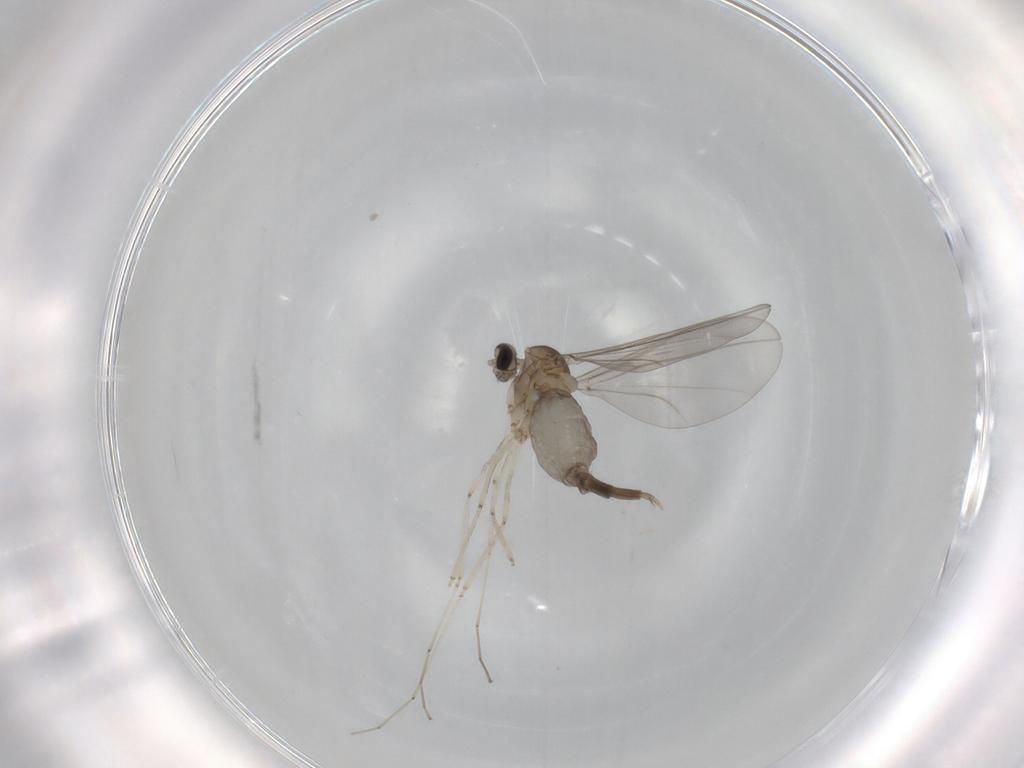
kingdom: Animalia
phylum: Arthropoda
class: Insecta
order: Diptera
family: Cecidomyiidae
